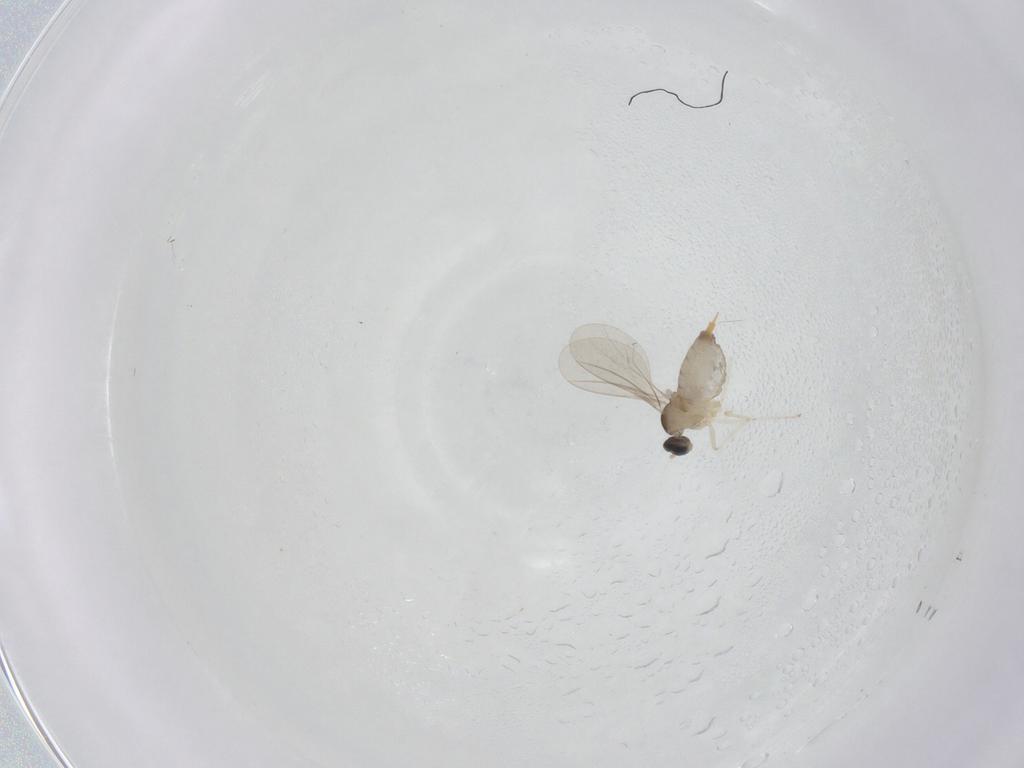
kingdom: Animalia
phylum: Arthropoda
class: Insecta
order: Diptera
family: Cecidomyiidae
